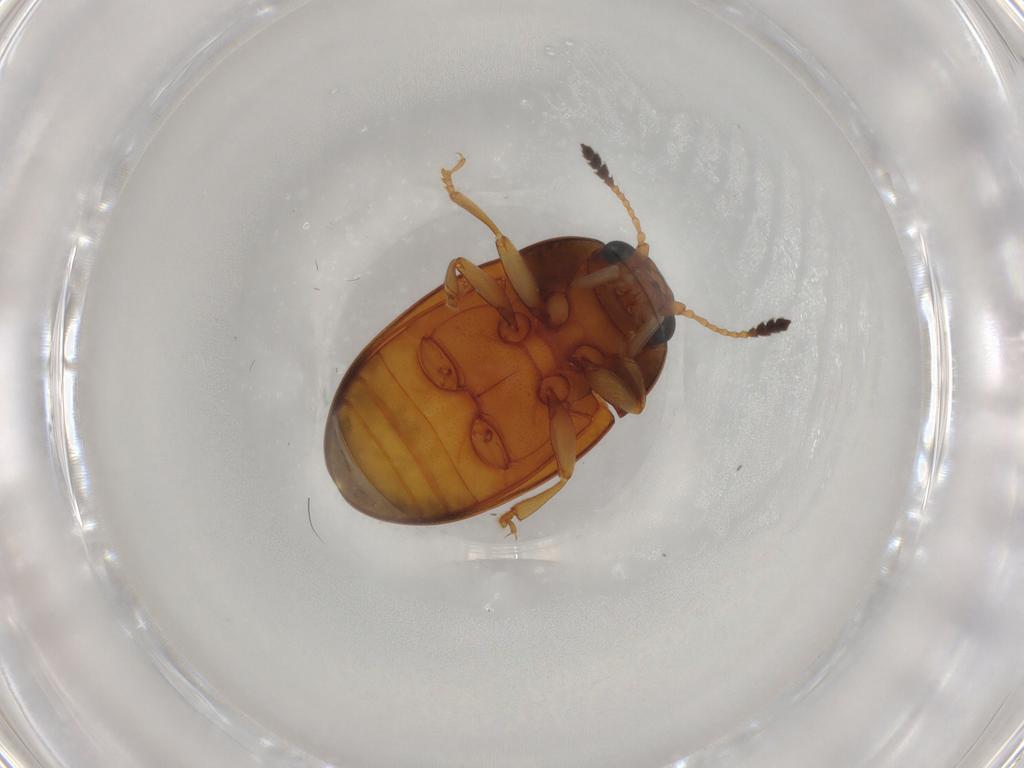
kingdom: Animalia
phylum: Arthropoda
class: Insecta
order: Coleoptera
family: Erotylidae
